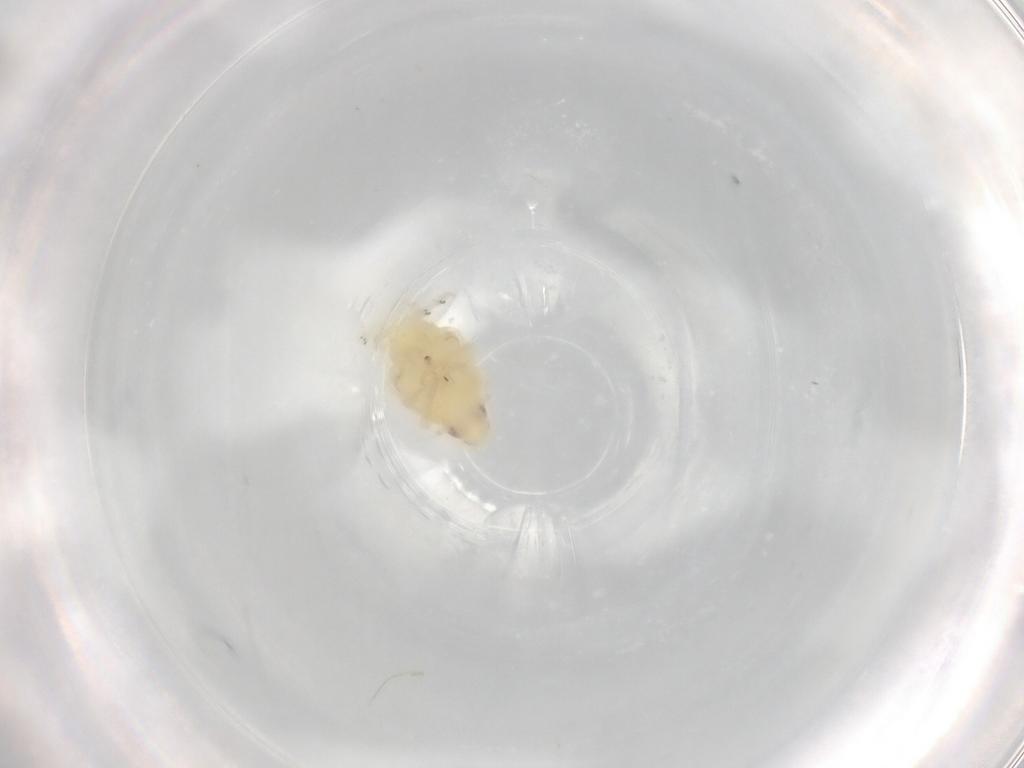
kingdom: Animalia
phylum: Arthropoda
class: Insecta
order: Hemiptera
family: Tropiduchidae
